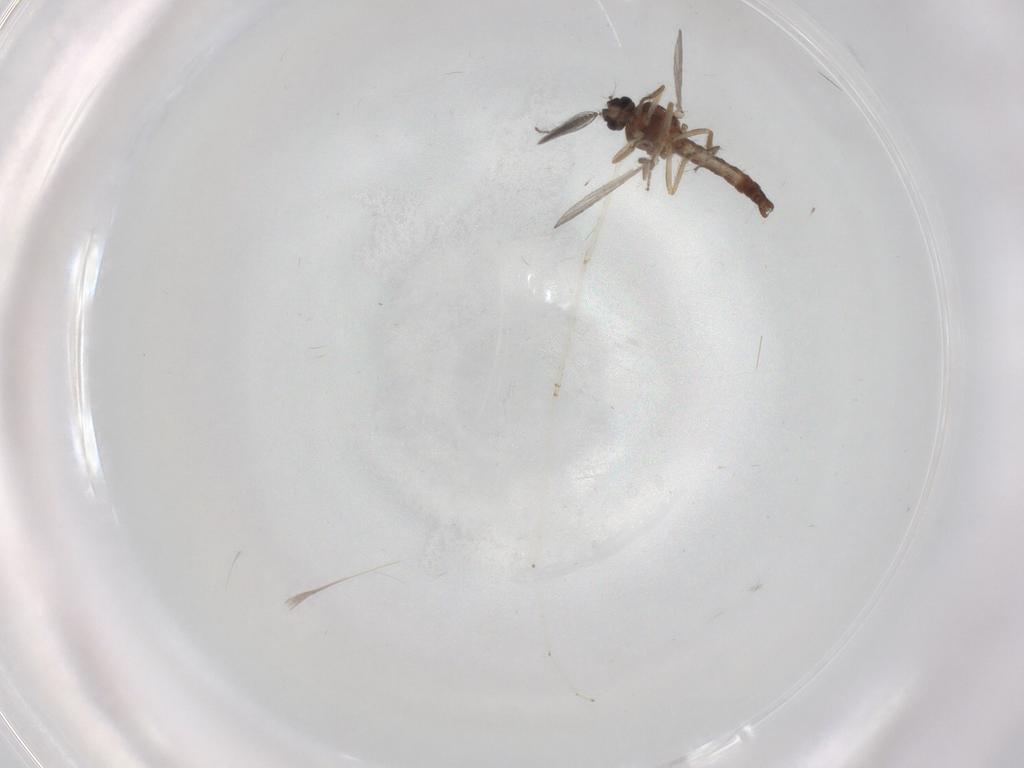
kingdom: Animalia
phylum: Arthropoda
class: Insecta
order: Diptera
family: Ceratopogonidae
